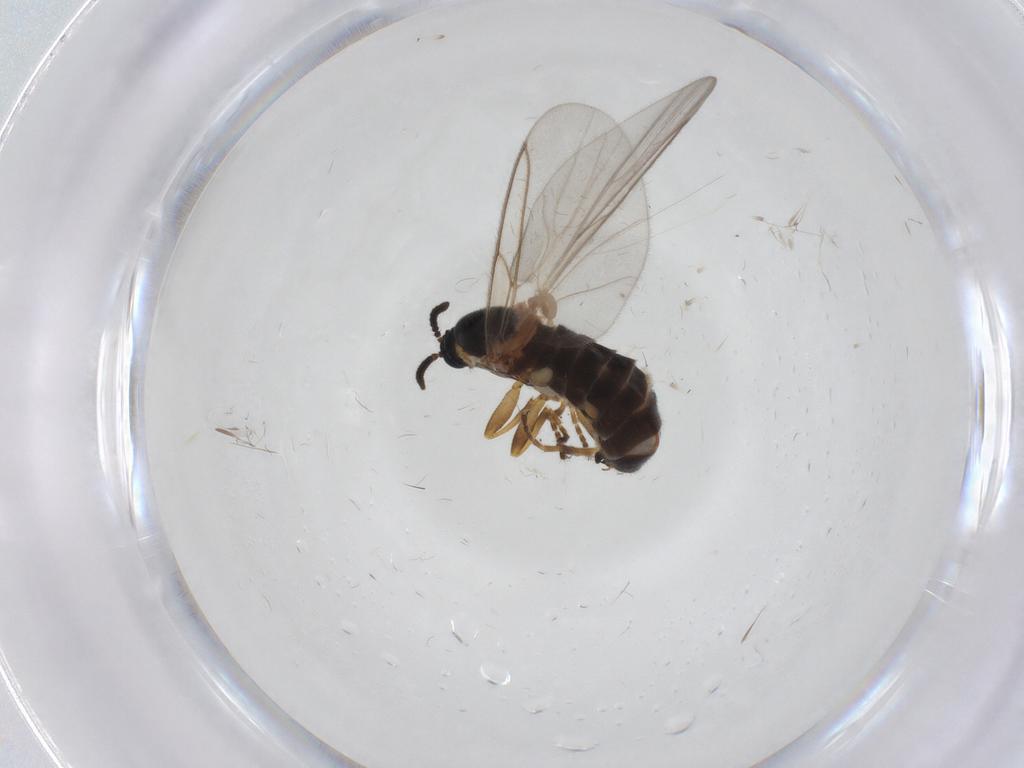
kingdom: Animalia
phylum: Arthropoda
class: Insecta
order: Diptera
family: Scatopsidae
